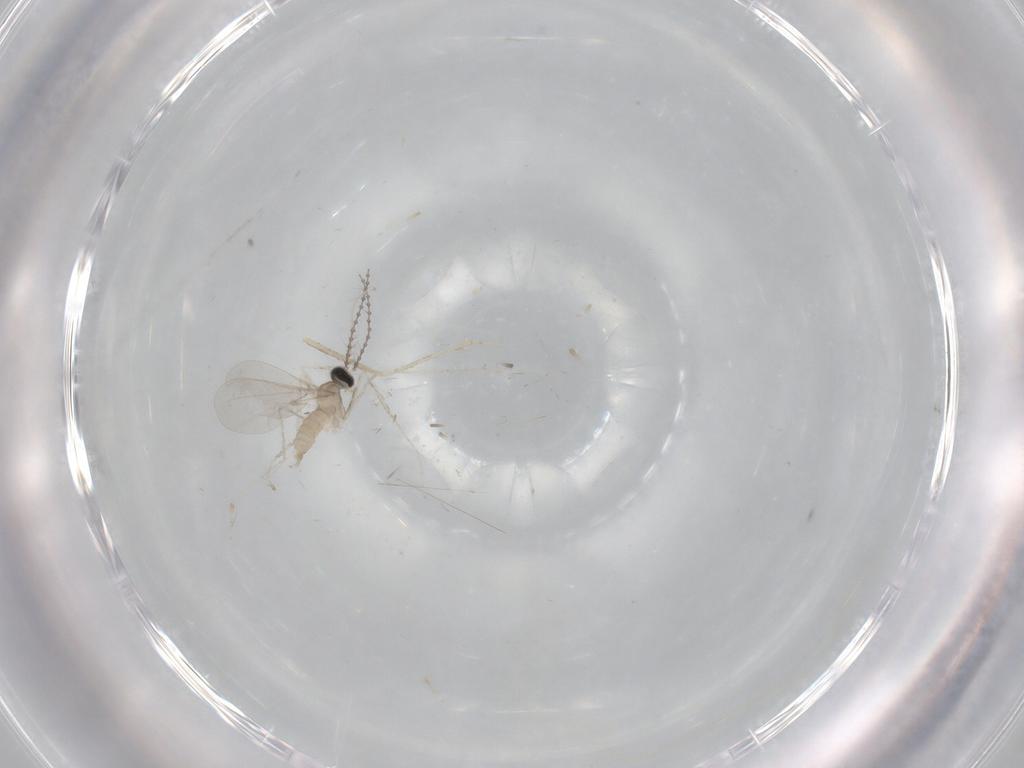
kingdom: Animalia
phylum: Arthropoda
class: Insecta
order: Diptera
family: Cecidomyiidae
